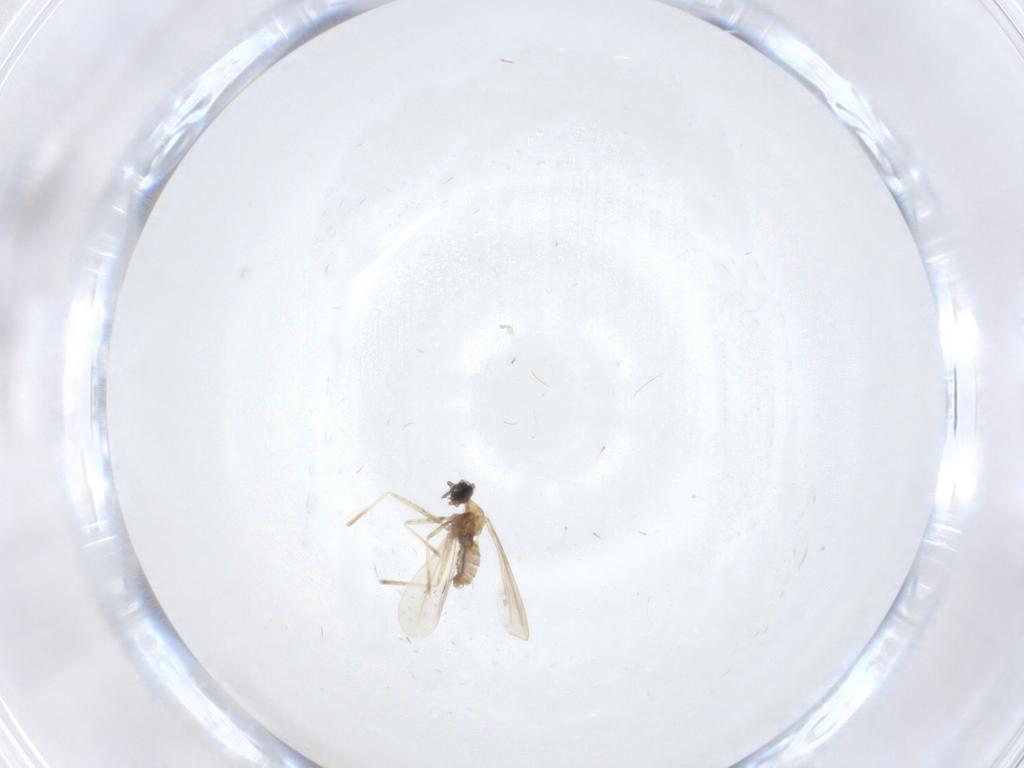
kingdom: Animalia
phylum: Arthropoda
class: Insecta
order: Diptera
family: Cecidomyiidae
